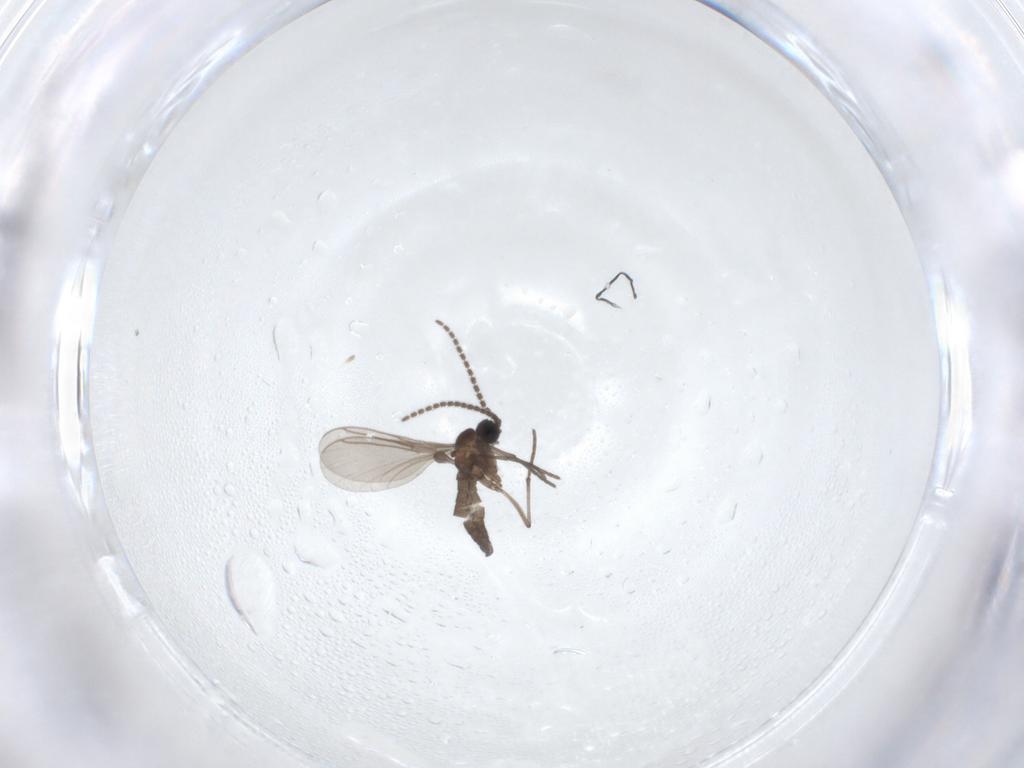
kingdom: Animalia
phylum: Arthropoda
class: Insecta
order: Diptera
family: Sciaridae
